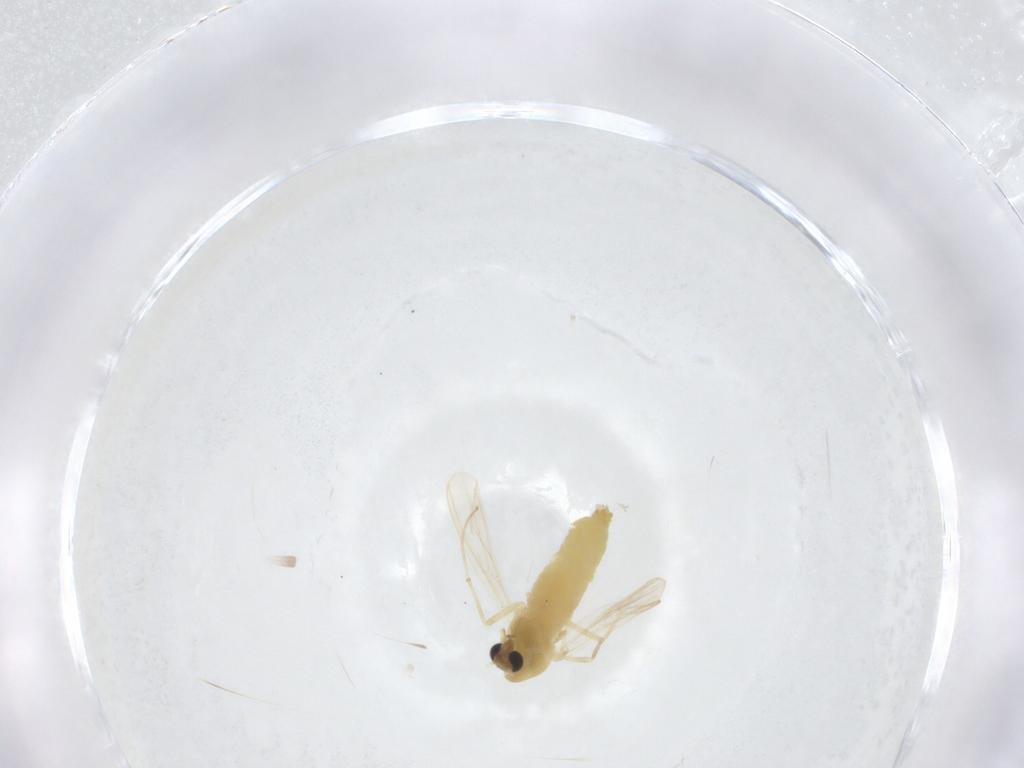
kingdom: Animalia
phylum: Arthropoda
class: Insecta
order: Diptera
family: Chironomidae
